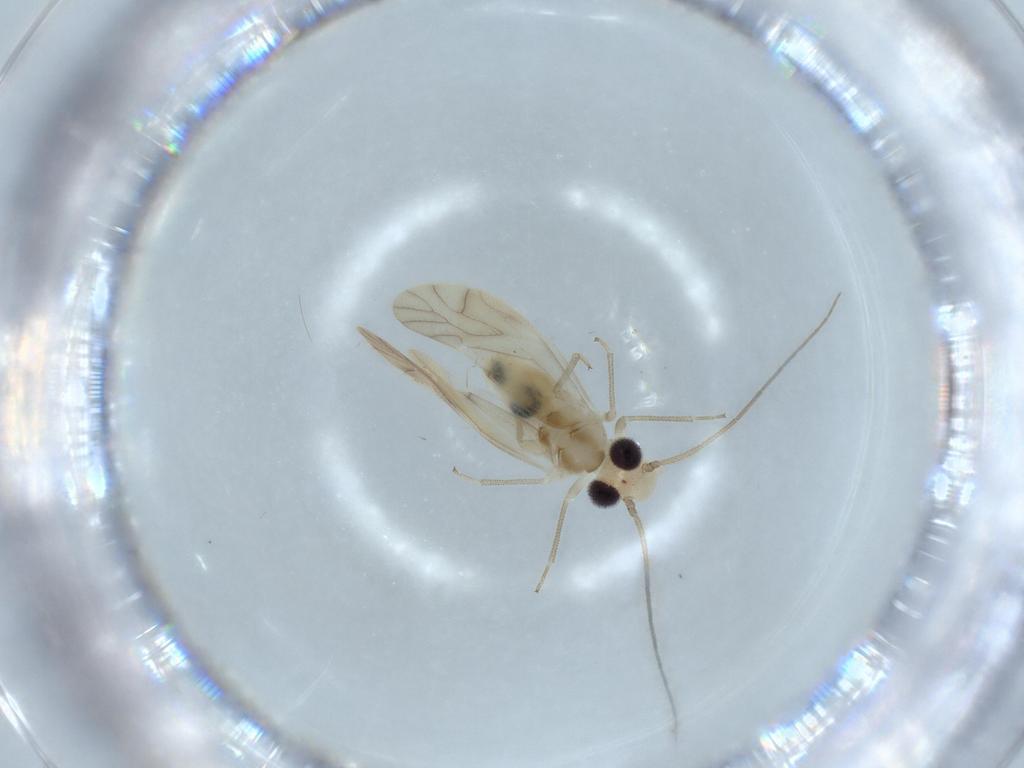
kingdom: Animalia
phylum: Arthropoda
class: Insecta
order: Psocodea
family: Caeciliusidae
